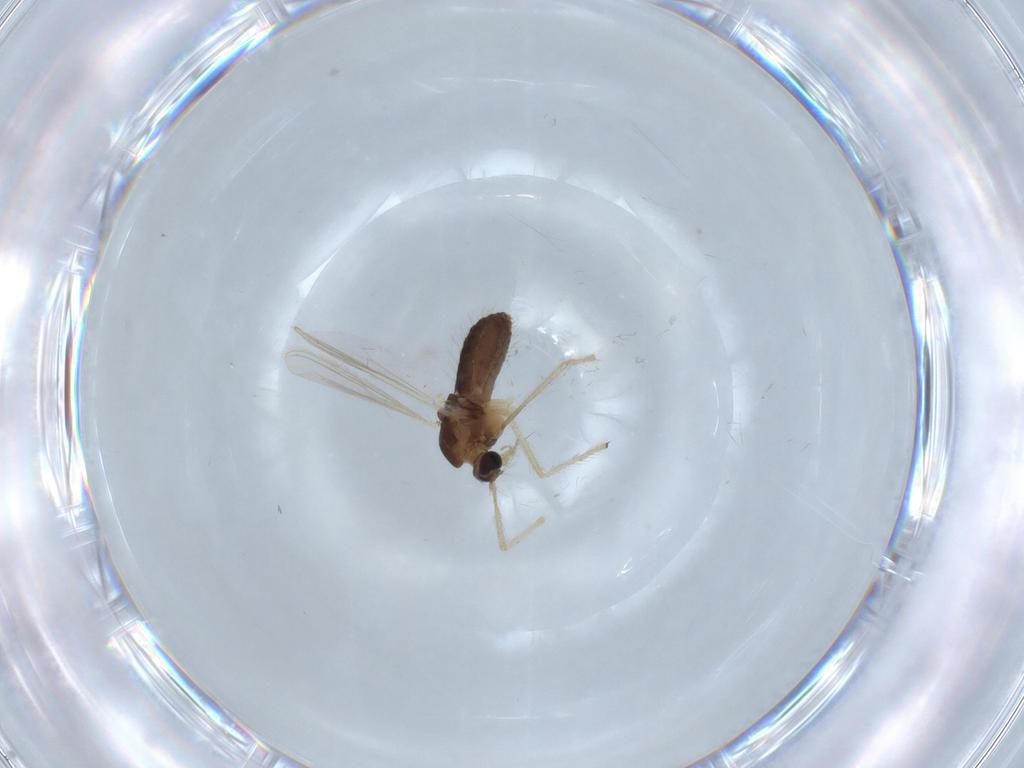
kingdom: Animalia
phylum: Arthropoda
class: Insecta
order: Diptera
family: Chironomidae
